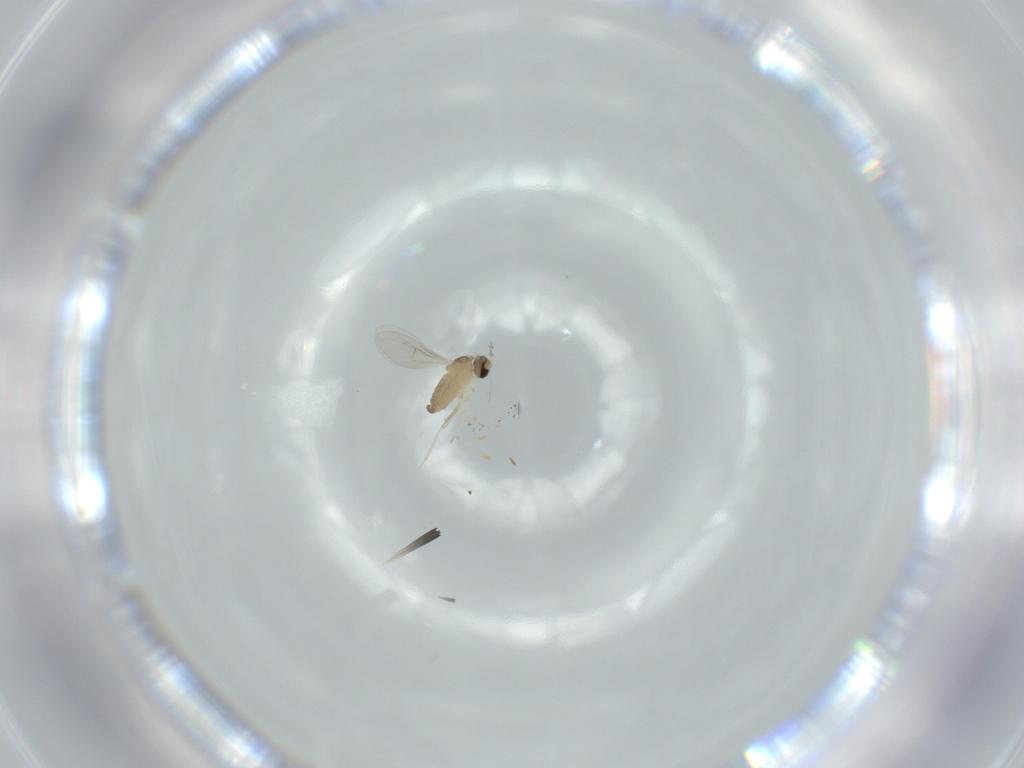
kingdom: Animalia
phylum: Arthropoda
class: Insecta
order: Diptera
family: Cecidomyiidae
